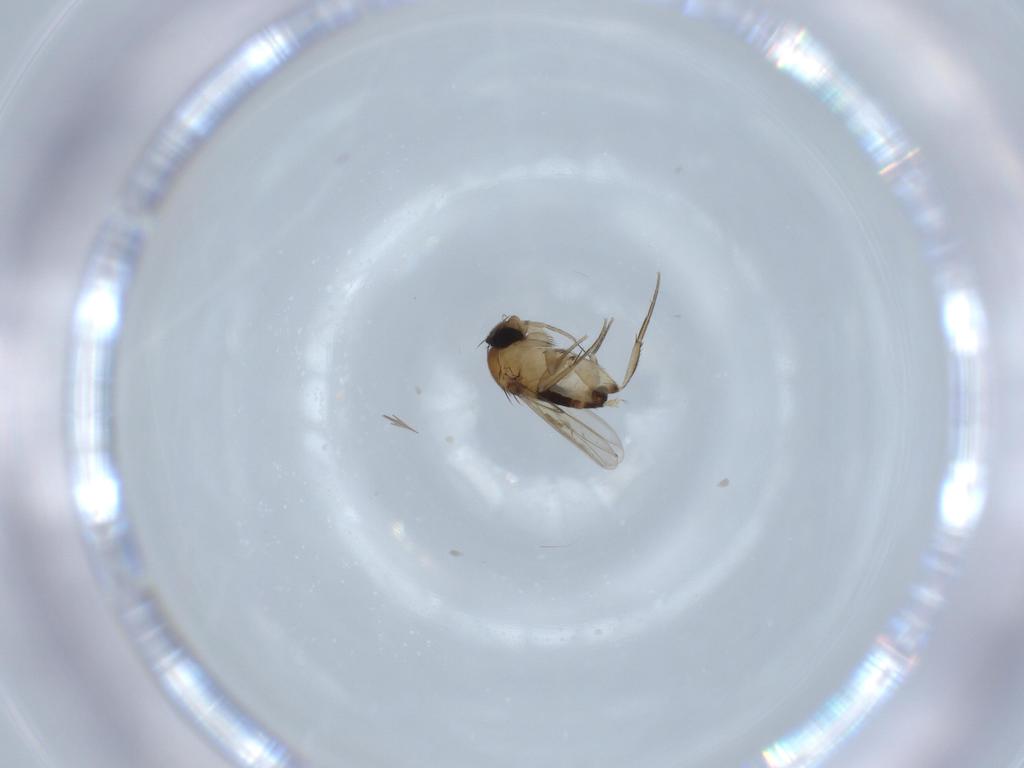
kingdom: Animalia
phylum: Arthropoda
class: Insecta
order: Diptera
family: Phoridae
